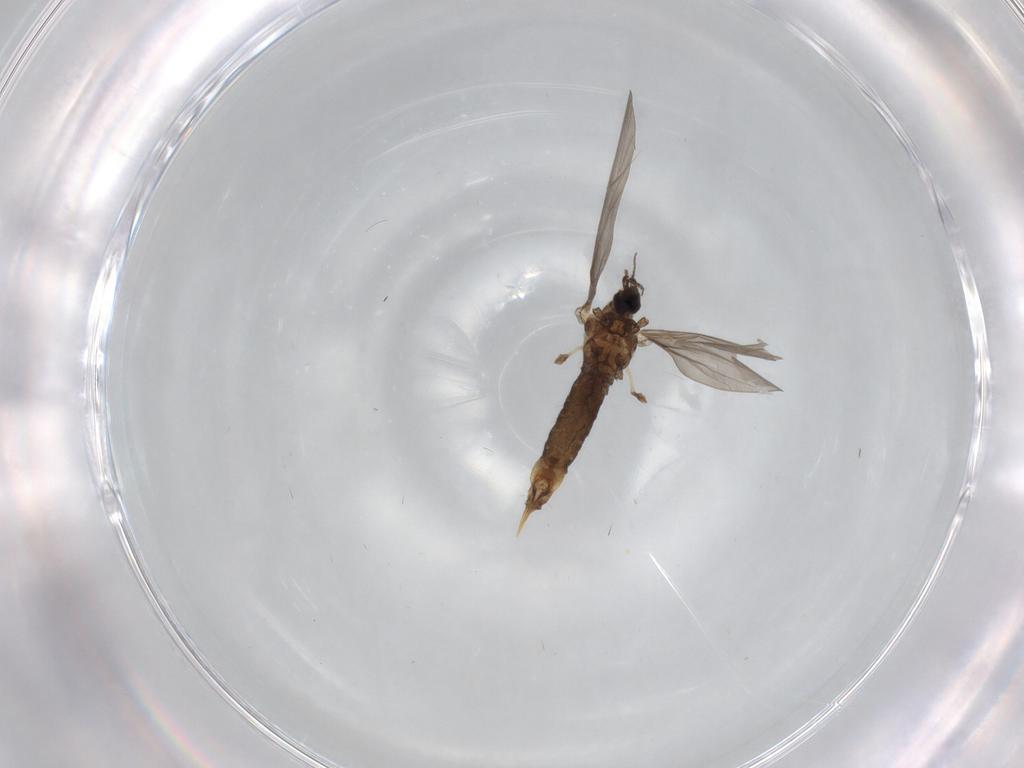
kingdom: Animalia
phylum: Arthropoda
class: Insecta
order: Diptera
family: Limoniidae
